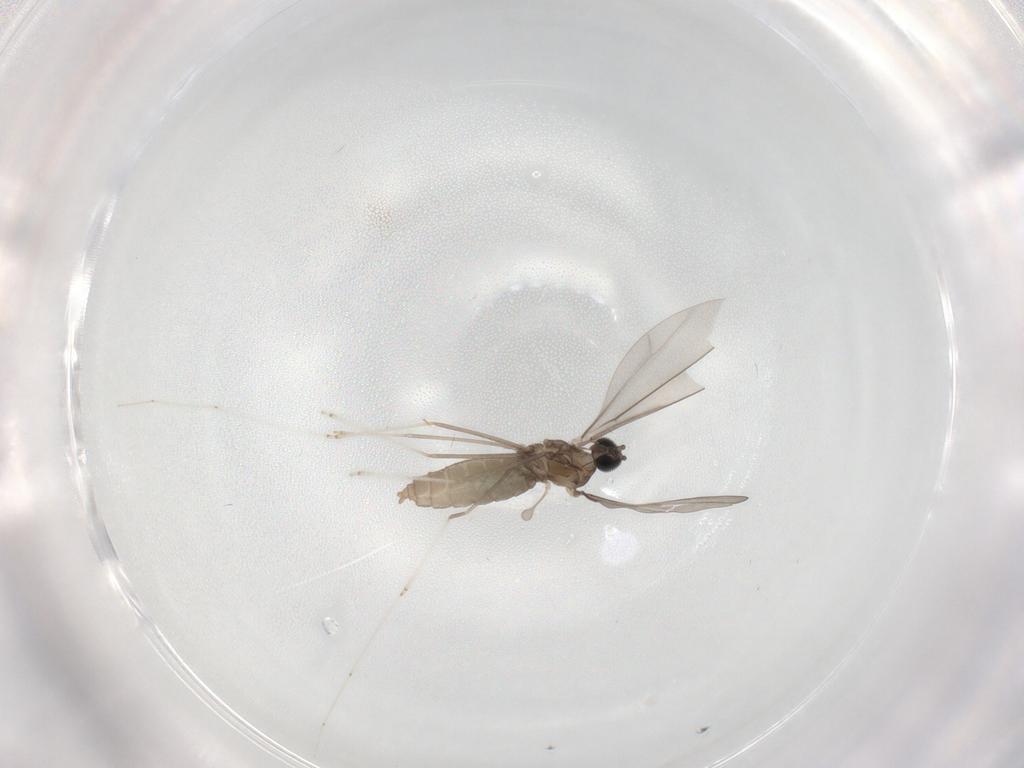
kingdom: Animalia
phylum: Arthropoda
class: Insecta
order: Diptera
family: Cecidomyiidae
